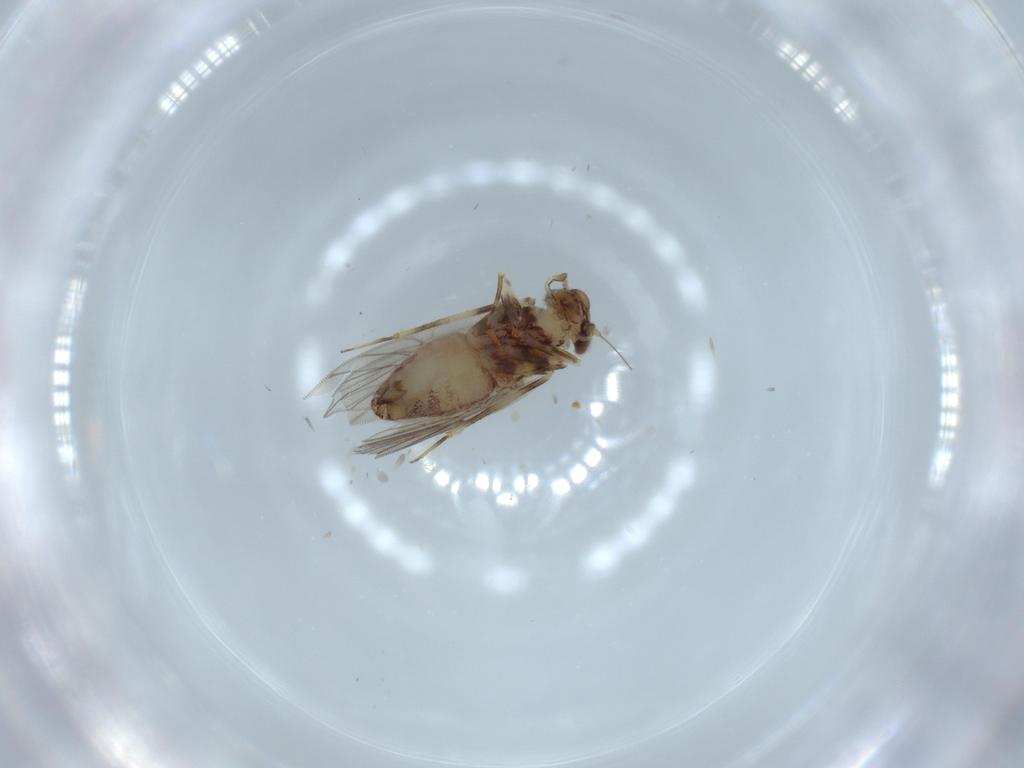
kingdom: Animalia
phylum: Arthropoda
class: Insecta
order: Psocodea
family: Lepidopsocidae
